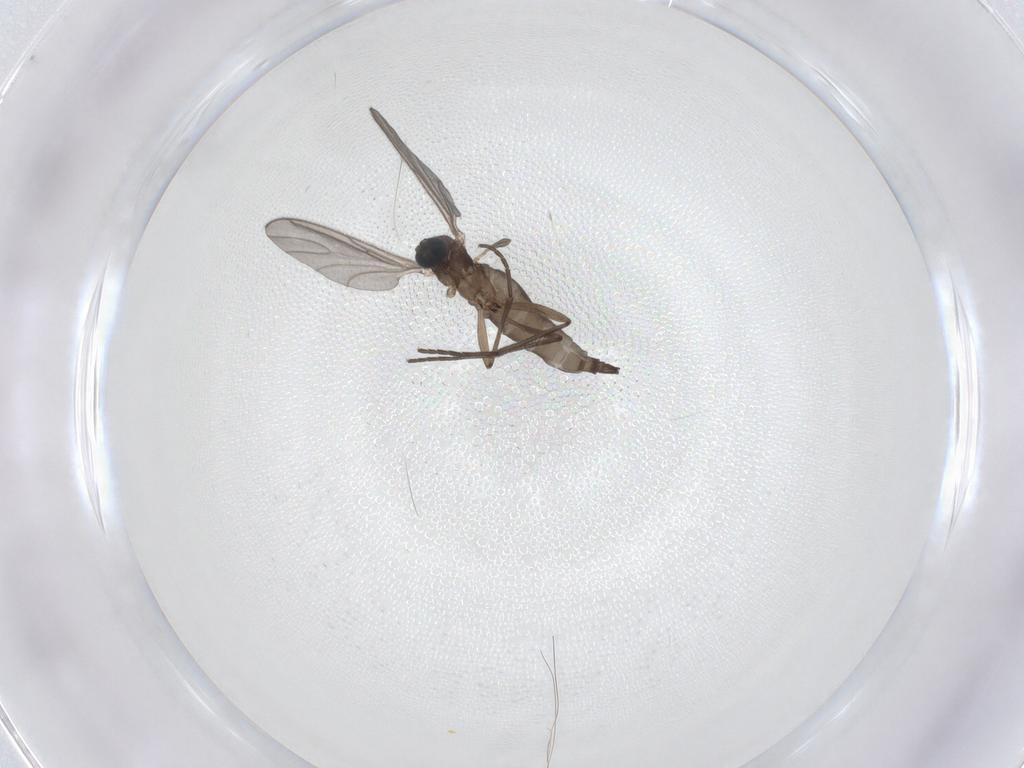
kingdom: Animalia
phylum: Arthropoda
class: Insecta
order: Diptera
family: Sciaridae
